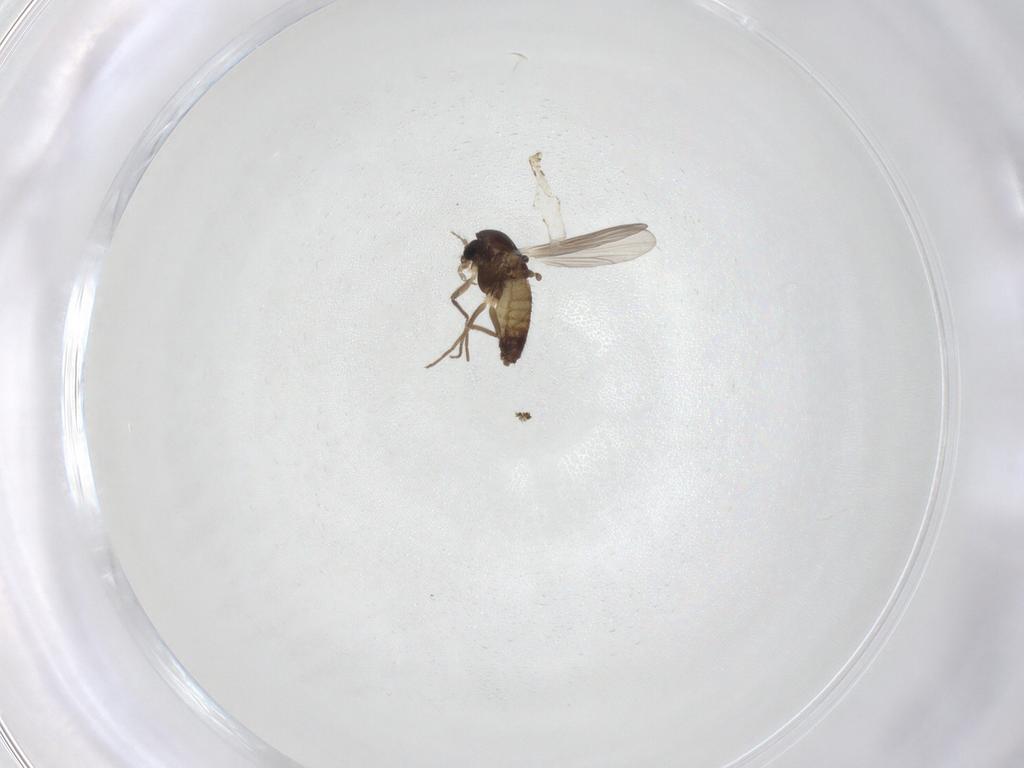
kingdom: Animalia
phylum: Arthropoda
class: Insecta
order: Diptera
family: Chironomidae
